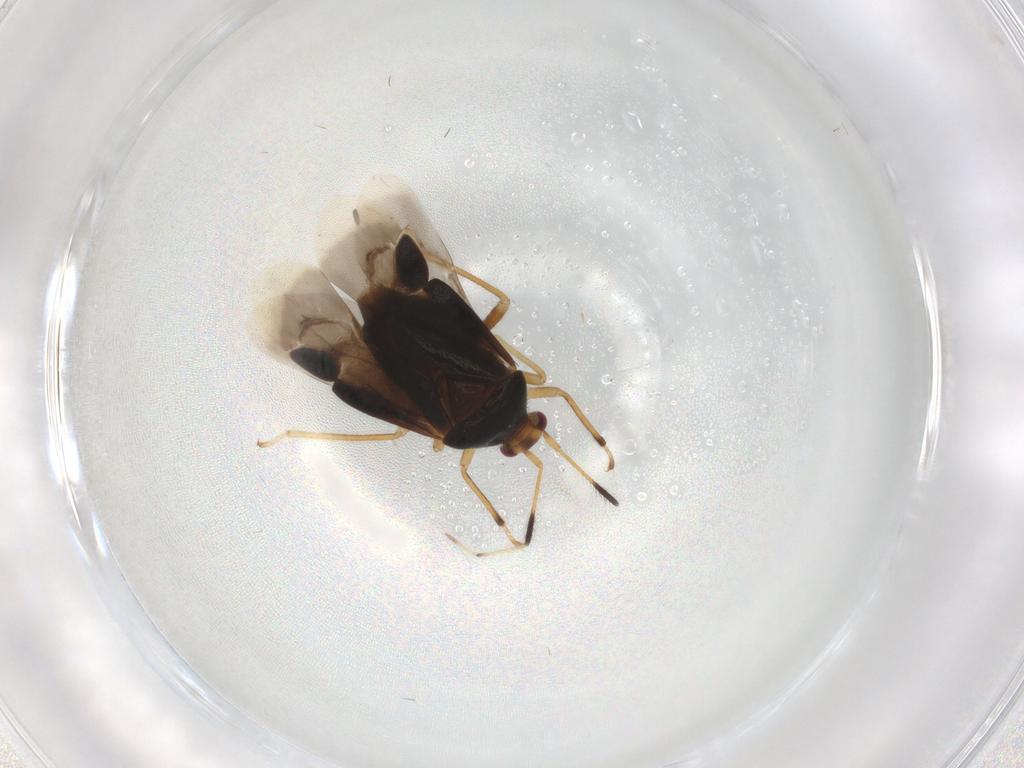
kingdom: Animalia
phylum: Arthropoda
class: Insecta
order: Hemiptera
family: Miridae
